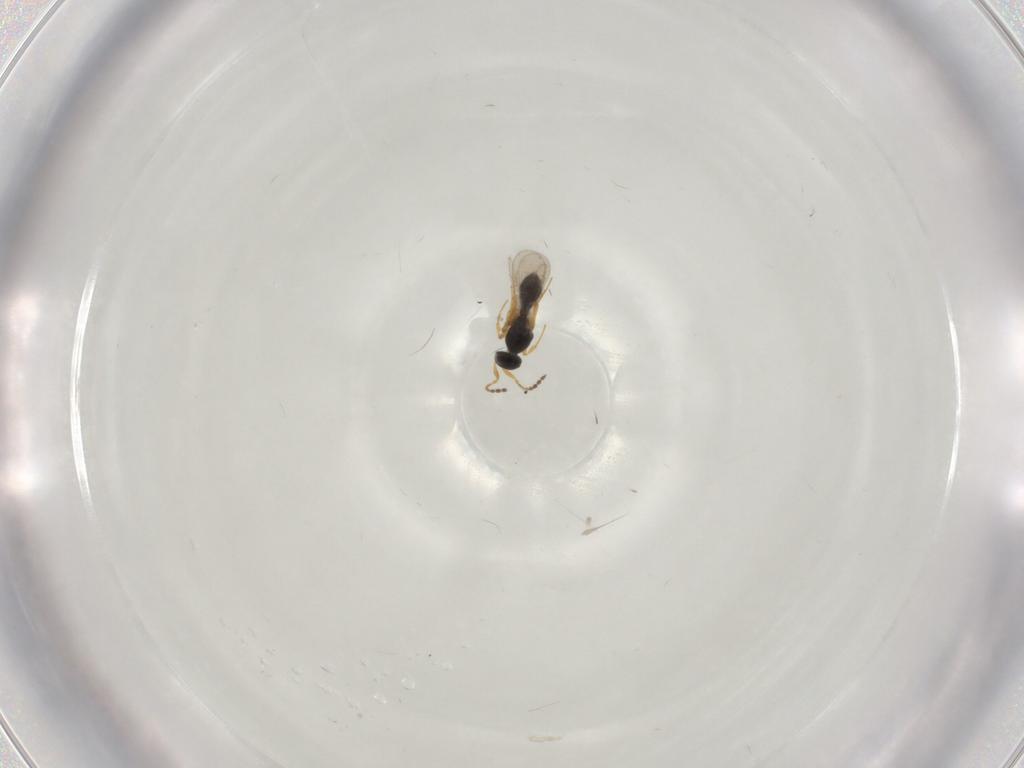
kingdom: Animalia
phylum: Arthropoda
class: Insecta
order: Hymenoptera
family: Platygastridae
